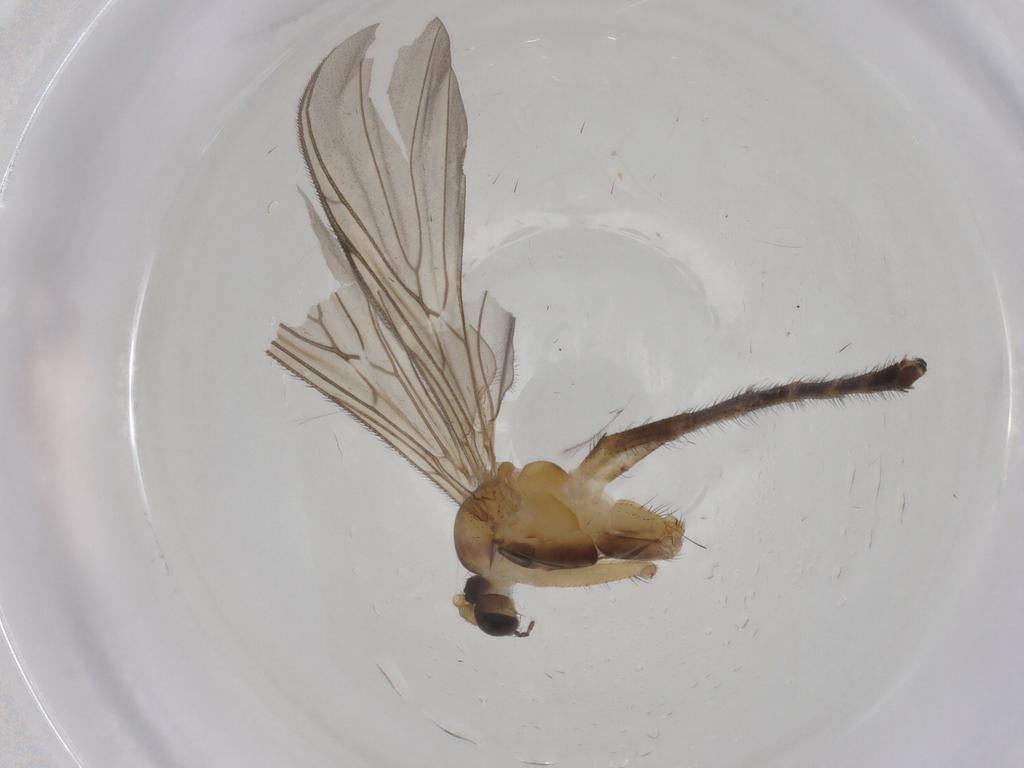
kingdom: Animalia
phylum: Arthropoda
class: Insecta
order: Diptera
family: Keroplatidae
